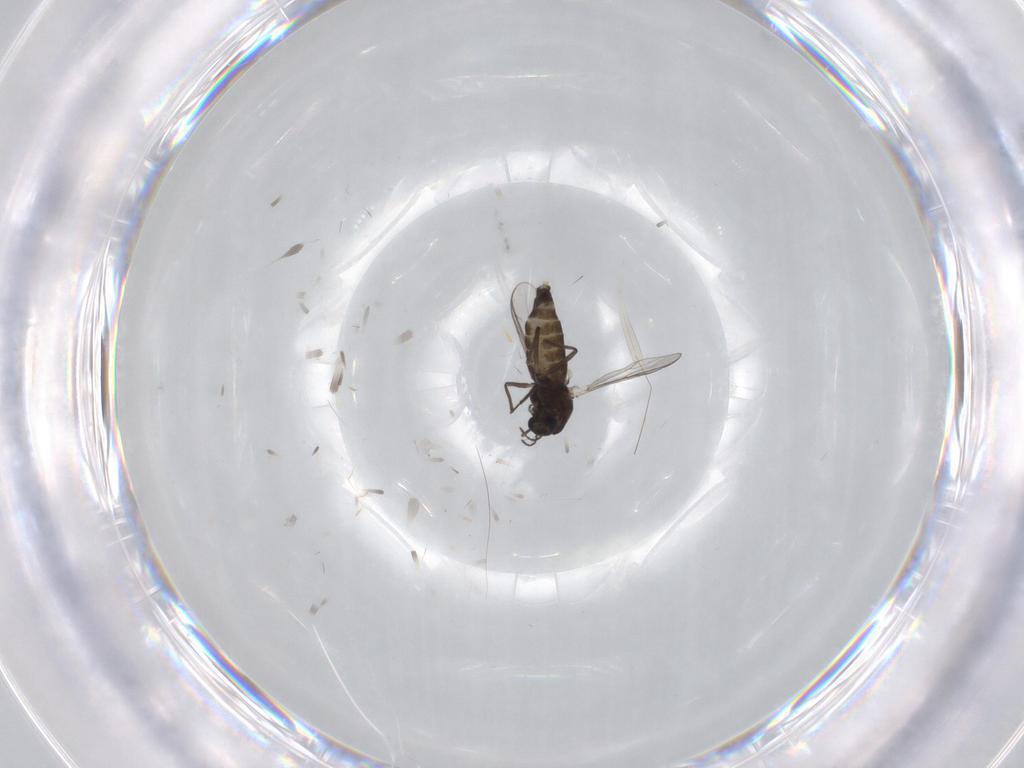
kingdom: Animalia
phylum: Arthropoda
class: Insecta
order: Diptera
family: Chironomidae
